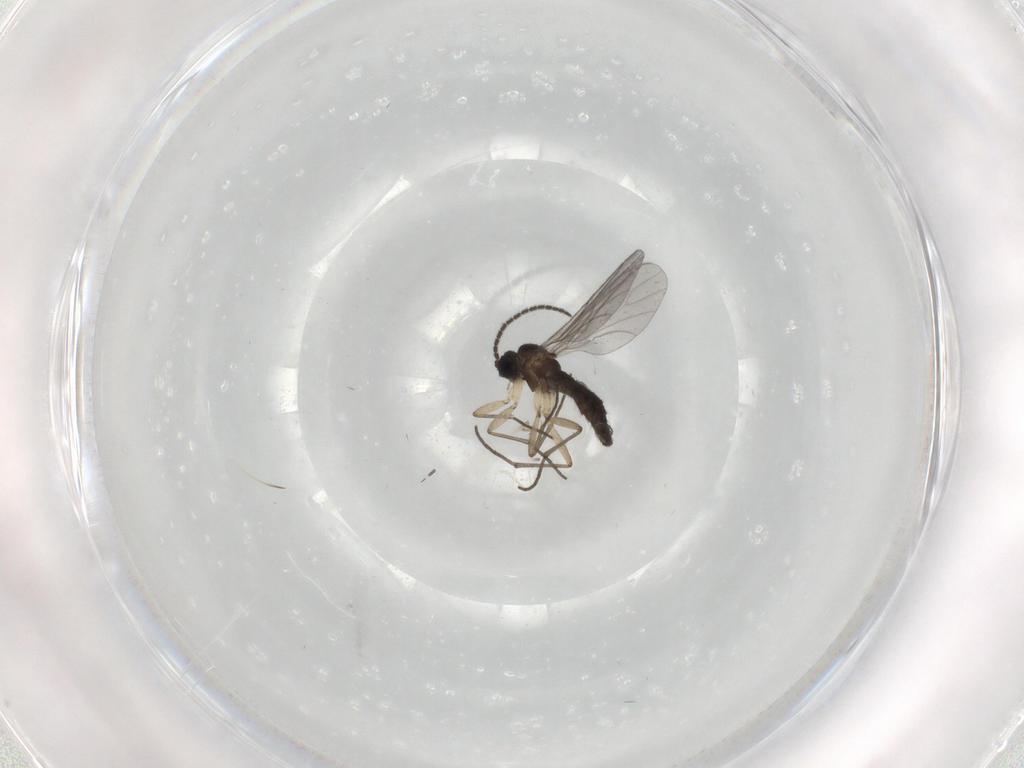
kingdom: Animalia
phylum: Arthropoda
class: Insecta
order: Diptera
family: Sciaridae
